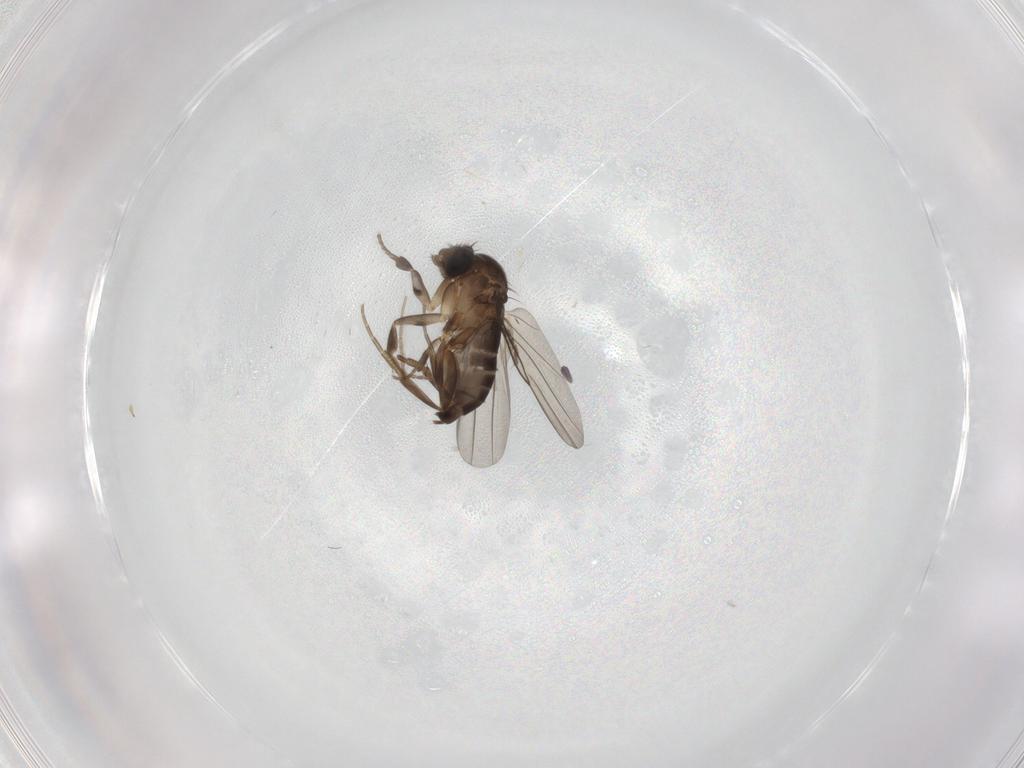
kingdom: Animalia
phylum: Arthropoda
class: Insecta
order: Diptera
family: Phoridae
